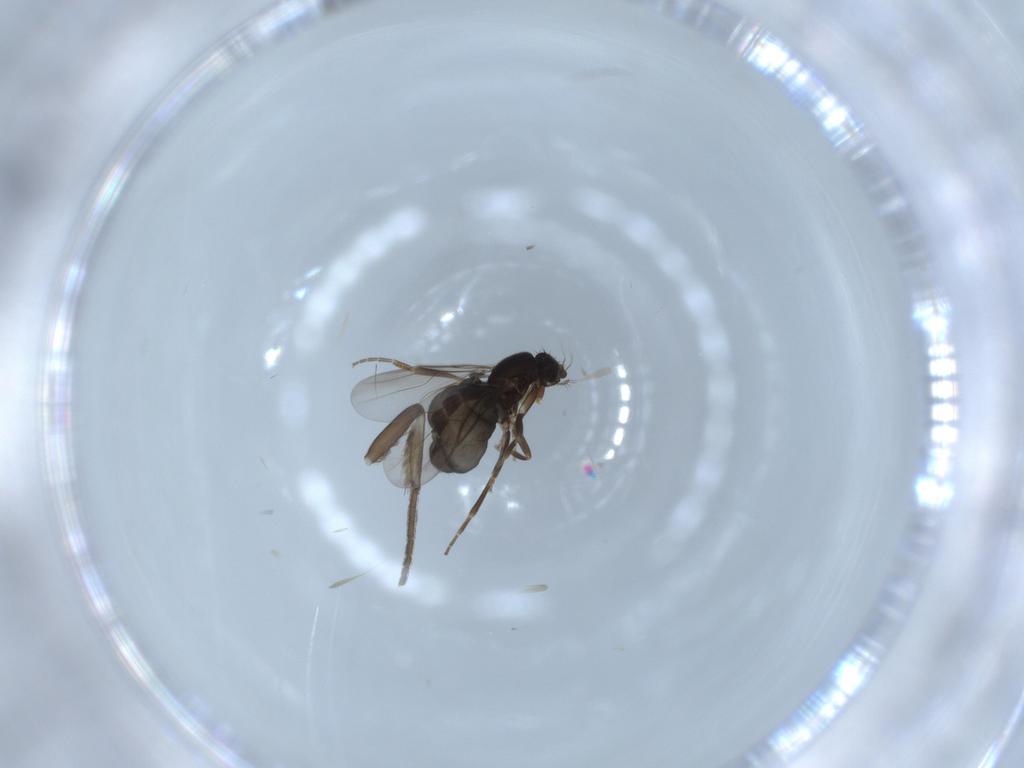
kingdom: Animalia
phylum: Arthropoda
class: Insecta
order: Diptera
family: Phoridae
